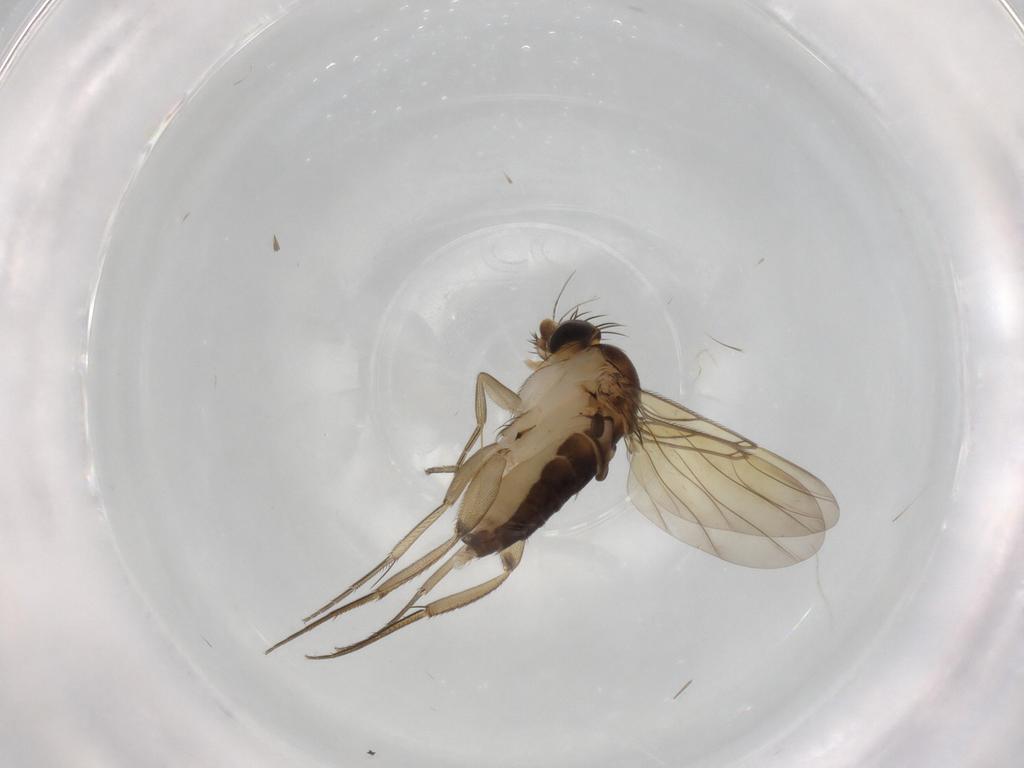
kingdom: Animalia
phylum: Arthropoda
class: Insecta
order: Diptera
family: Phoridae
